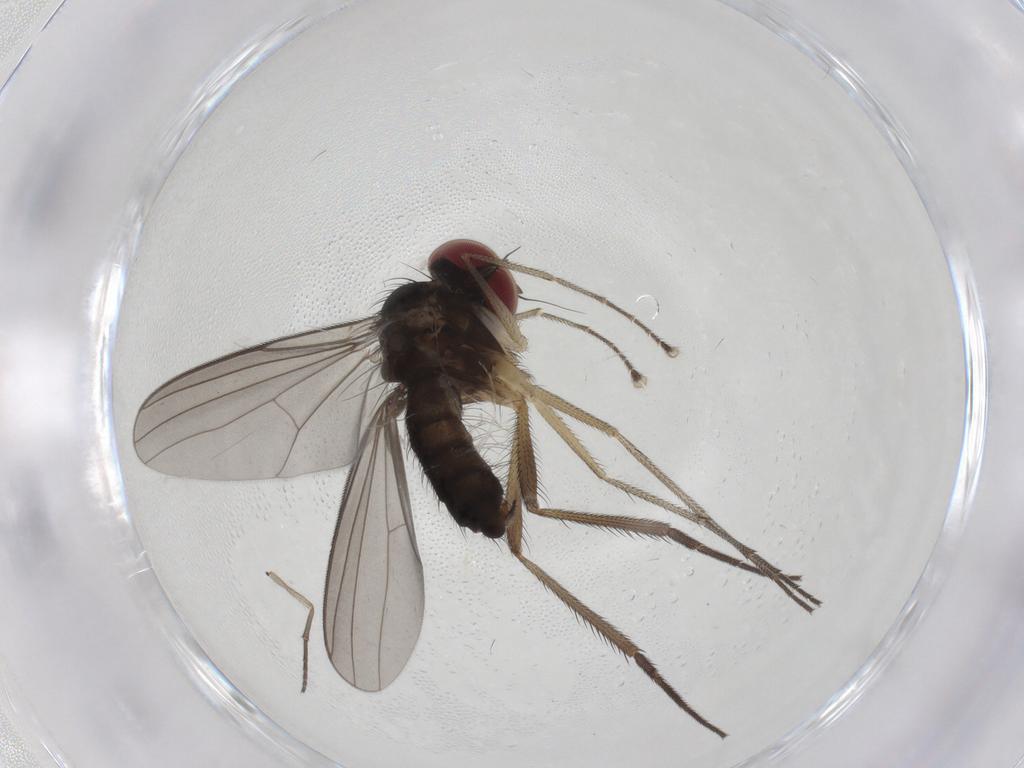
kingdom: Animalia
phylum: Arthropoda
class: Insecta
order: Diptera
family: Dolichopodidae
